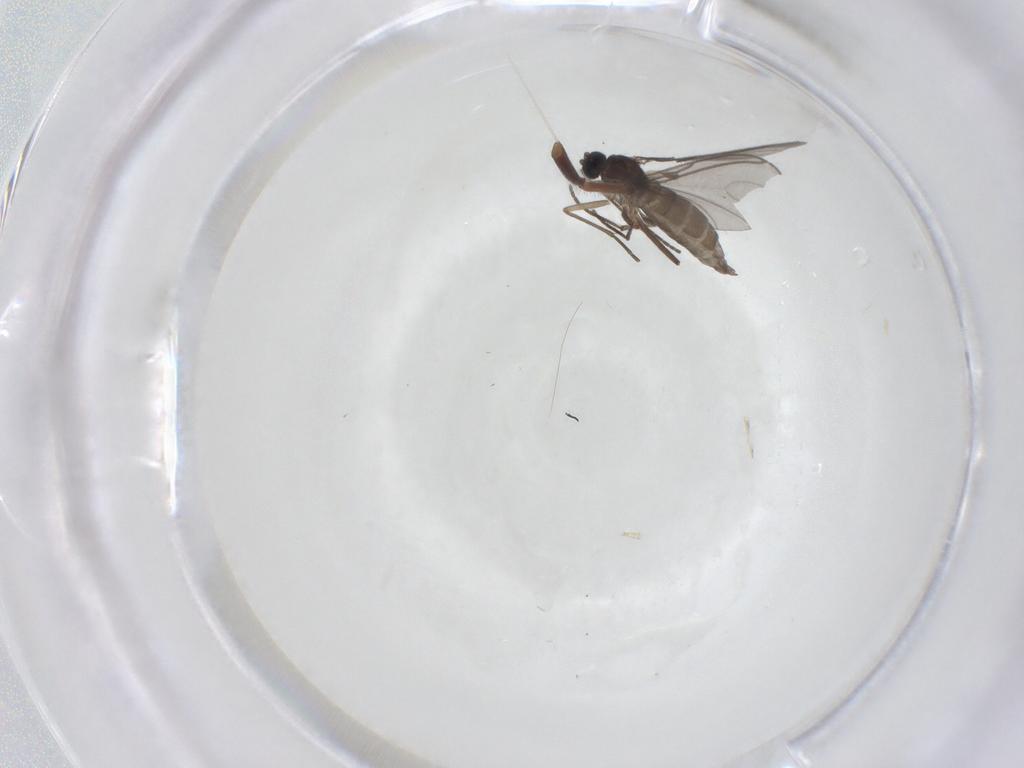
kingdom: Animalia
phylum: Arthropoda
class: Insecta
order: Diptera
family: Sciaridae
